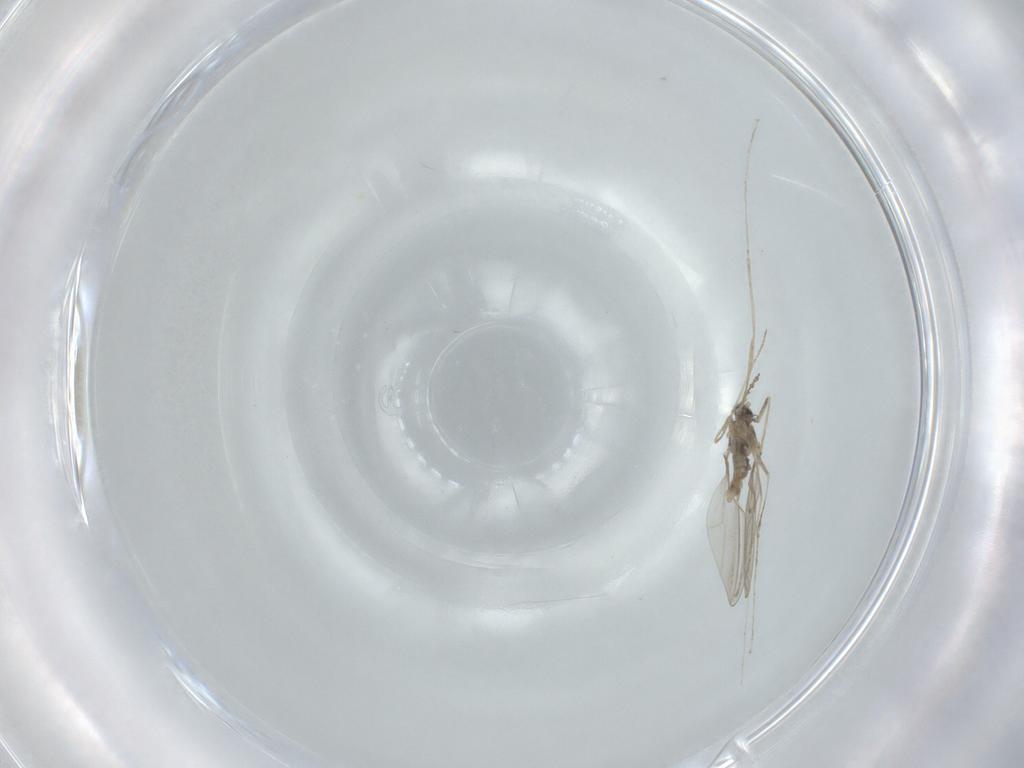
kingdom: Animalia
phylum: Arthropoda
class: Insecta
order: Diptera
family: Cecidomyiidae
